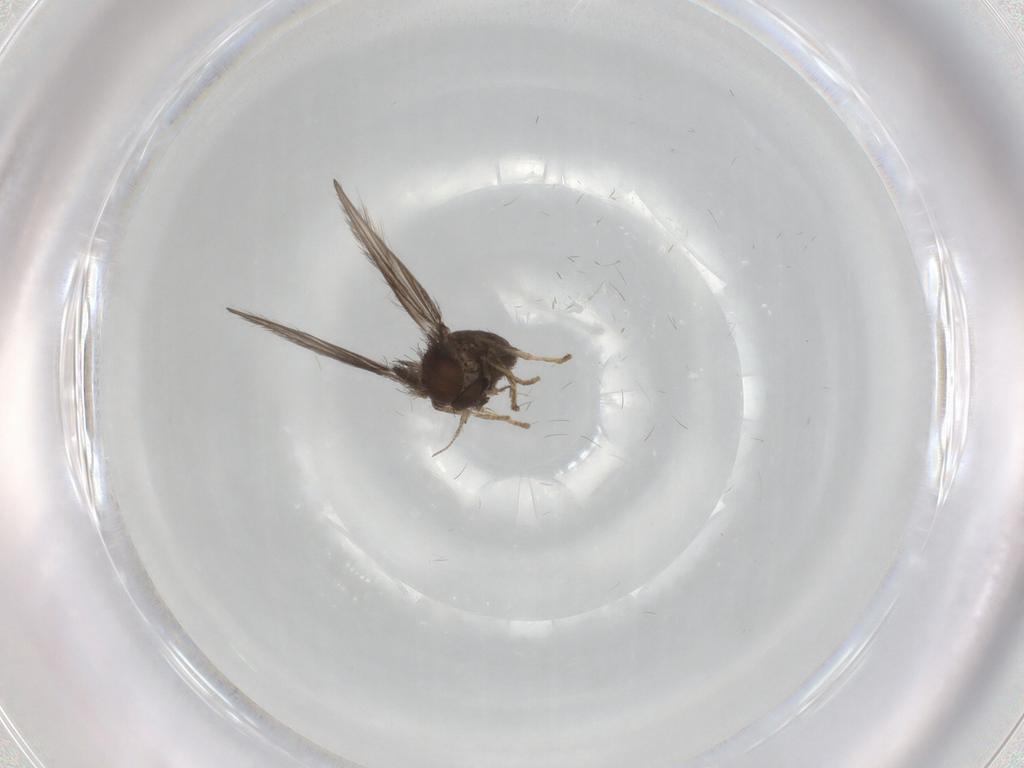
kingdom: Animalia
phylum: Arthropoda
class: Insecta
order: Diptera
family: Psychodidae
